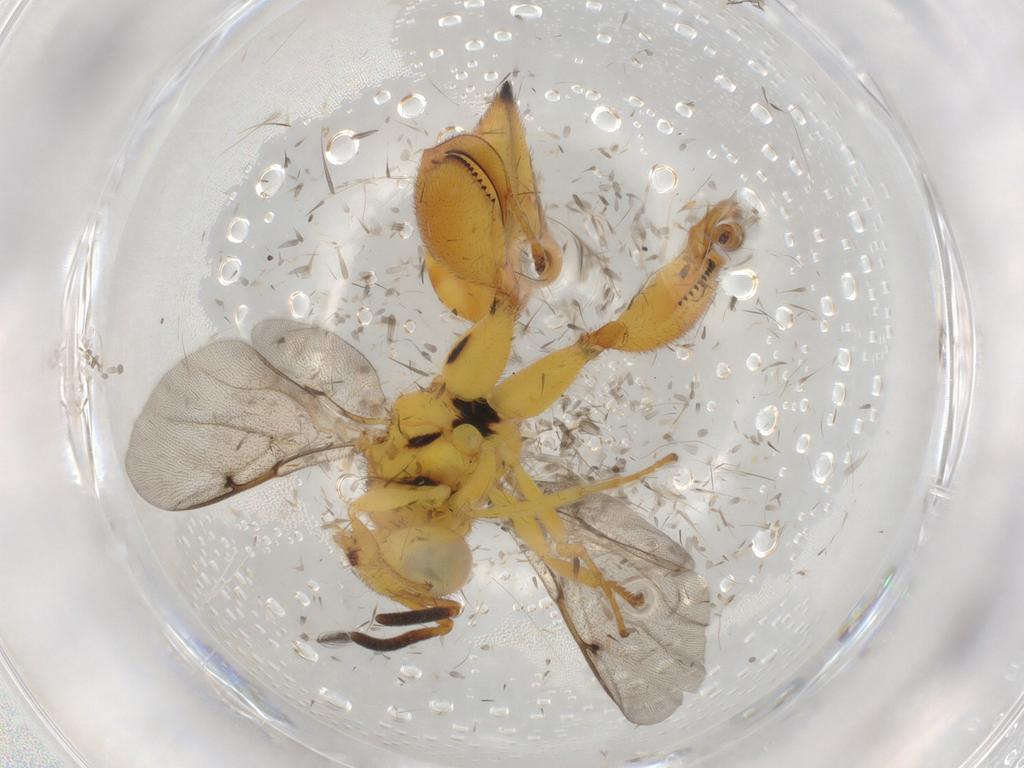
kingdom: Animalia
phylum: Arthropoda
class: Insecta
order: Hymenoptera
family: Chalcididae
